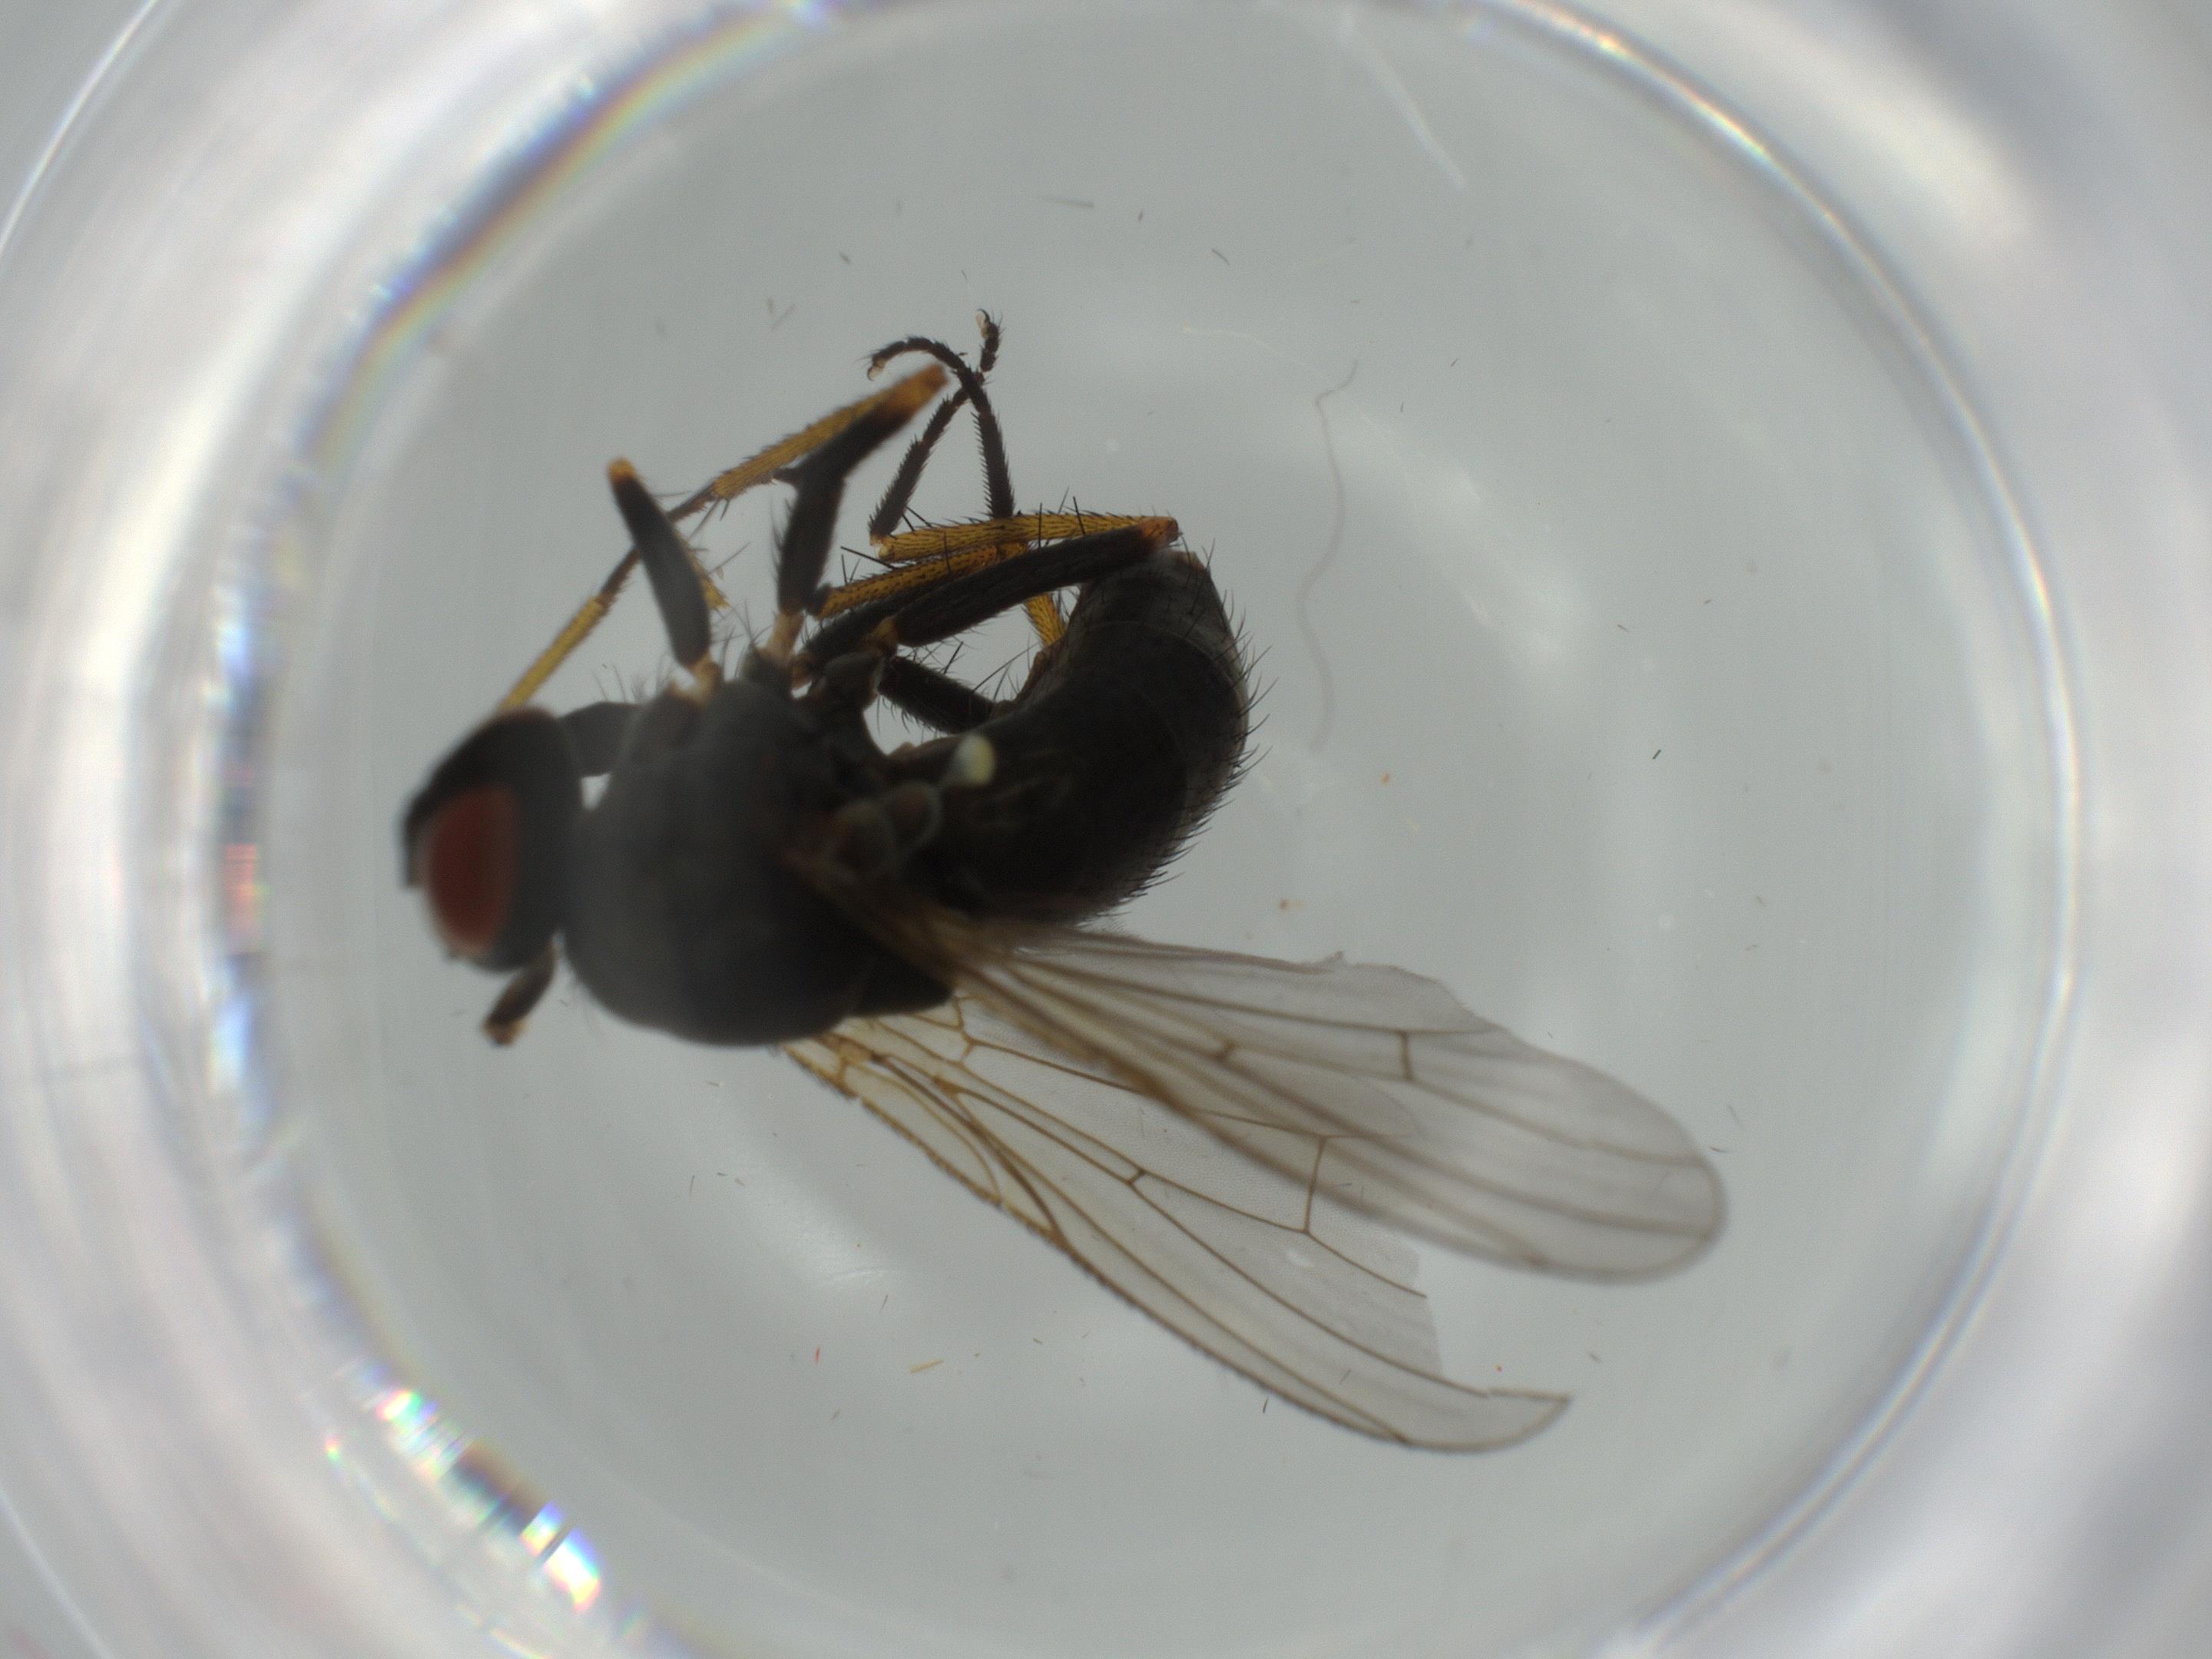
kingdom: Animalia
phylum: Arthropoda
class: Insecta
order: Diptera
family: Muscidae
